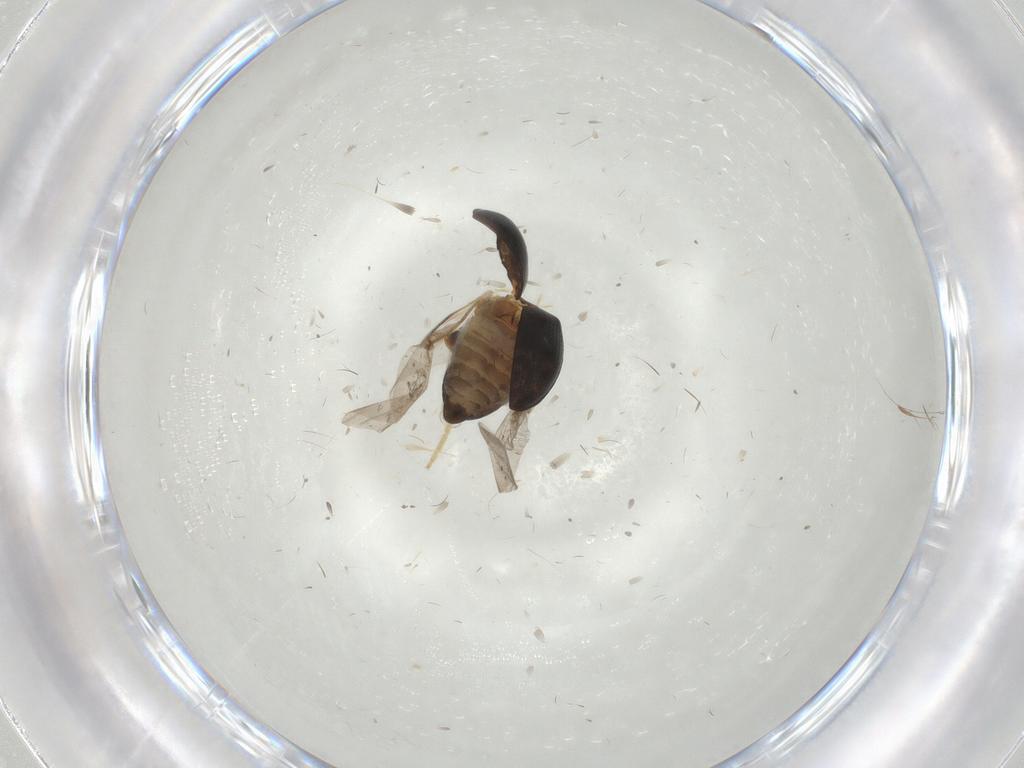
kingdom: Animalia
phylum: Arthropoda
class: Insecta
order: Coleoptera
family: Chrysomelidae
